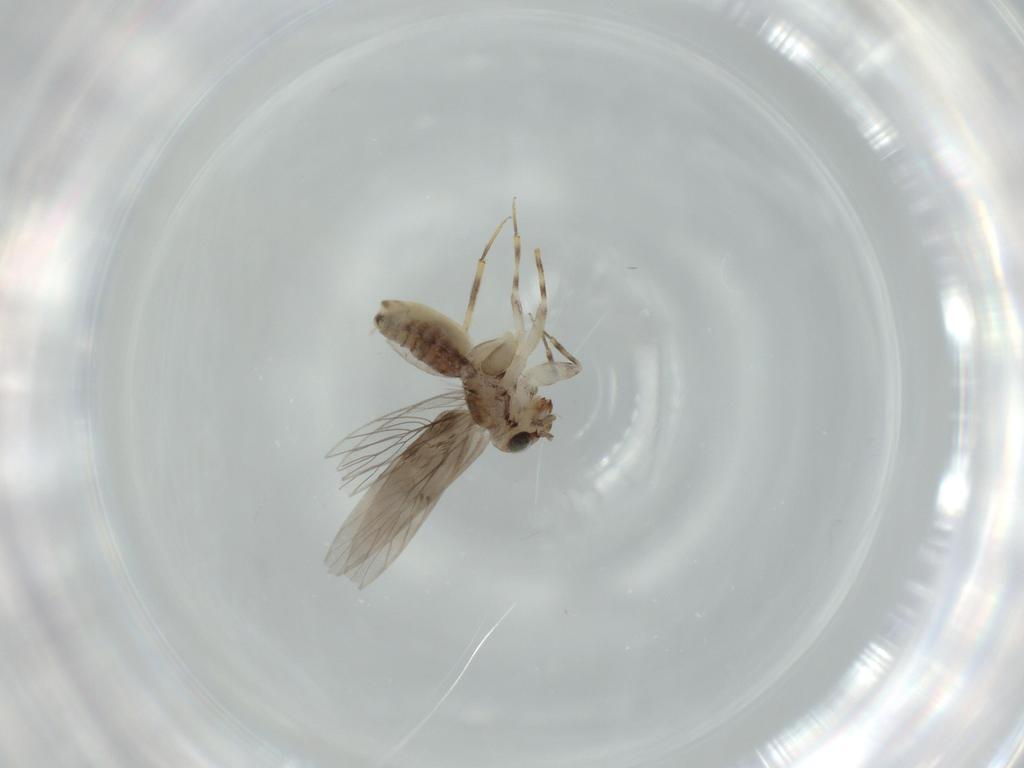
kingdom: Animalia
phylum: Arthropoda
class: Insecta
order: Psocodea
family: Lepidopsocidae
